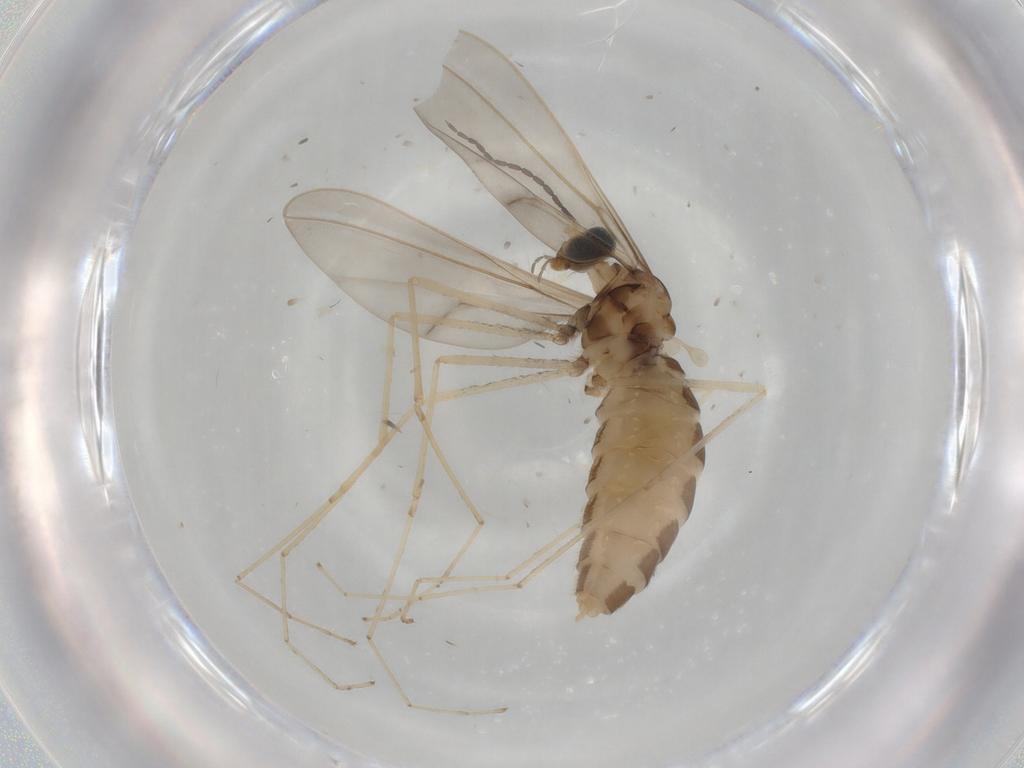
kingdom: Animalia
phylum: Arthropoda
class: Insecta
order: Diptera
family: Cecidomyiidae
